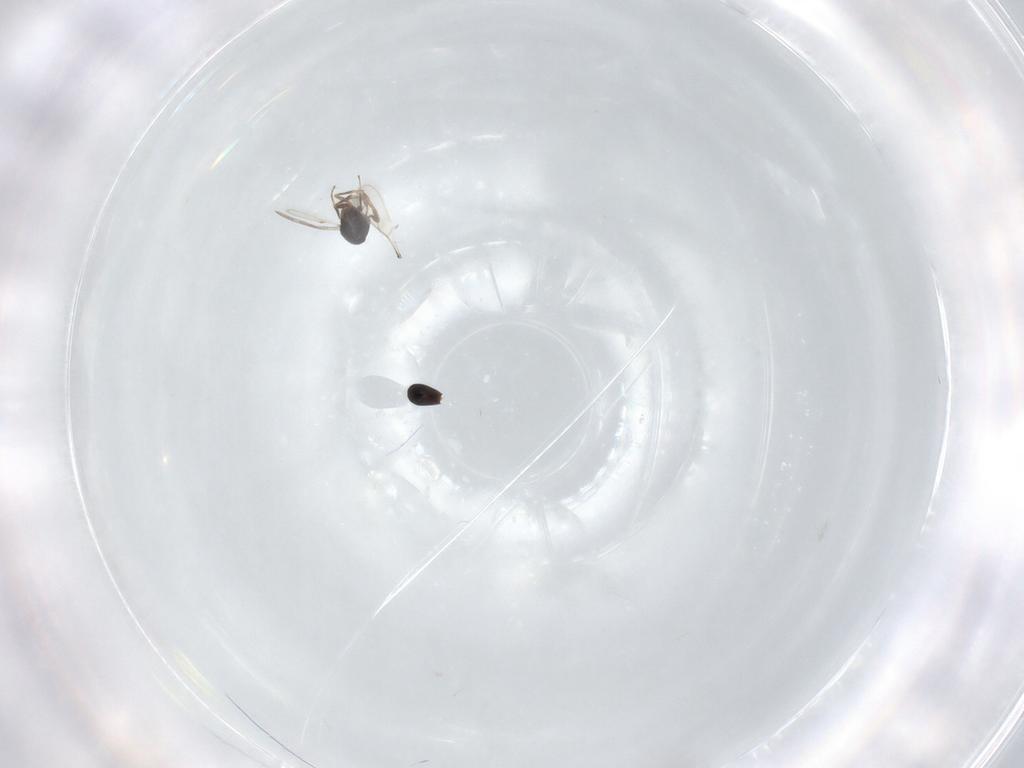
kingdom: Animalia
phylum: Arthropoda
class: Insecta
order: Hymenoptera
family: Scelionidae
